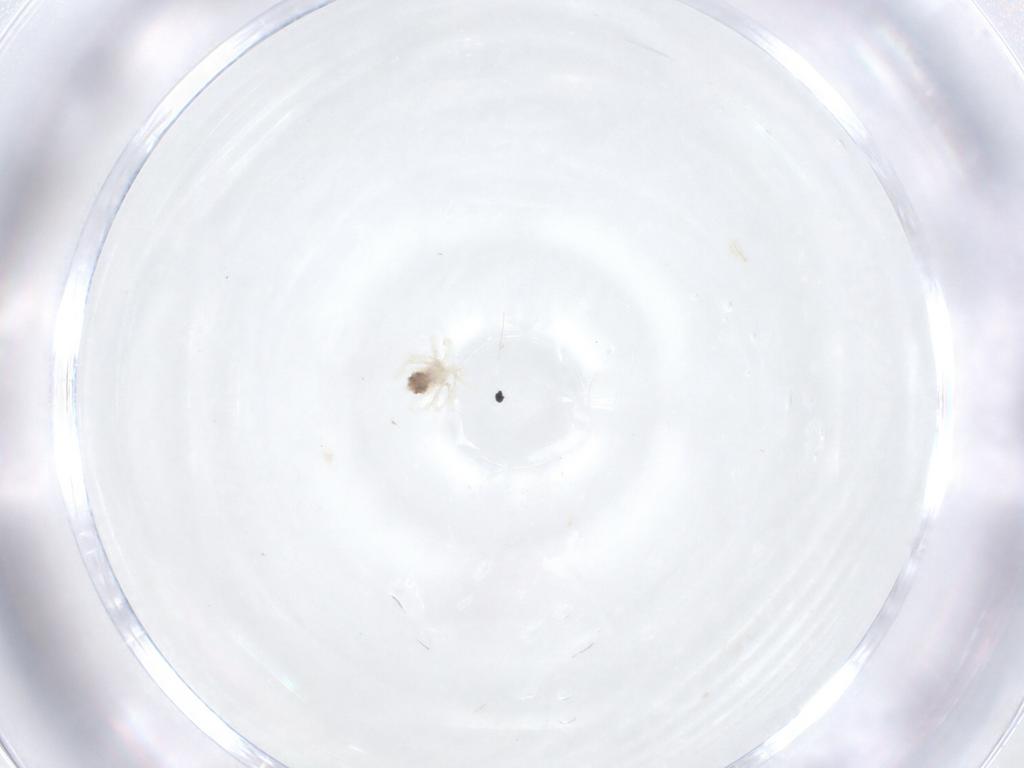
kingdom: Animalia
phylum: Arthropoda
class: Arachnida
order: Trombidiformes
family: Anystidae
